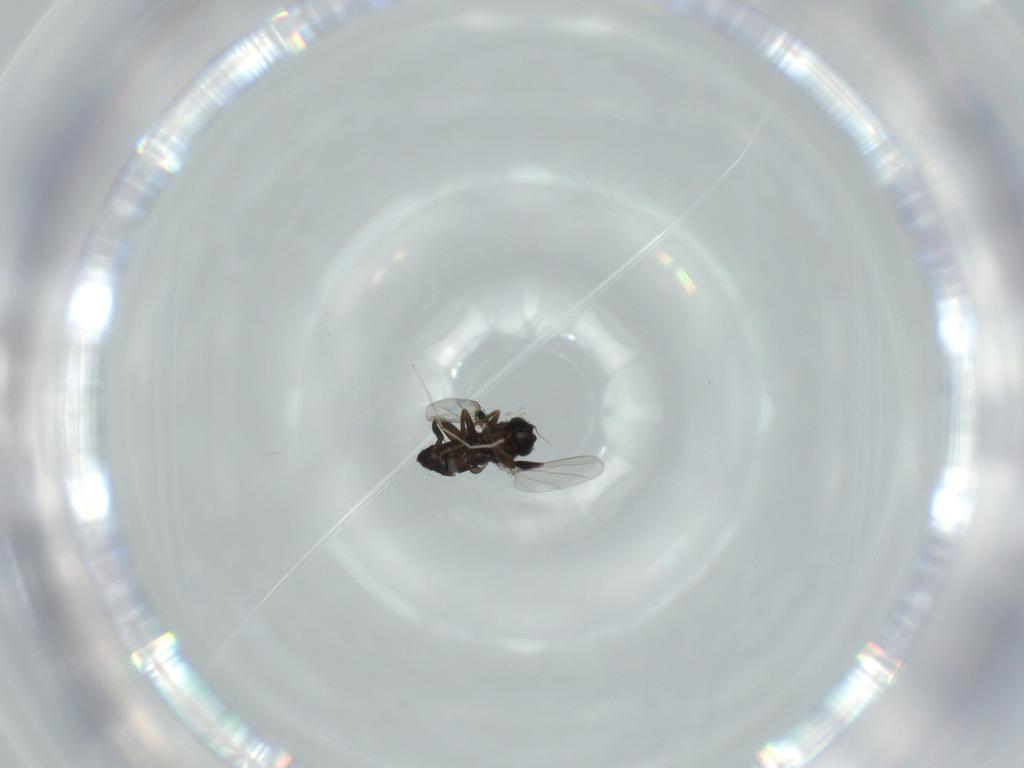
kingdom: Animalia
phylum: Arthropoda
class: Insecta
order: Diptera
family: Phoridae
